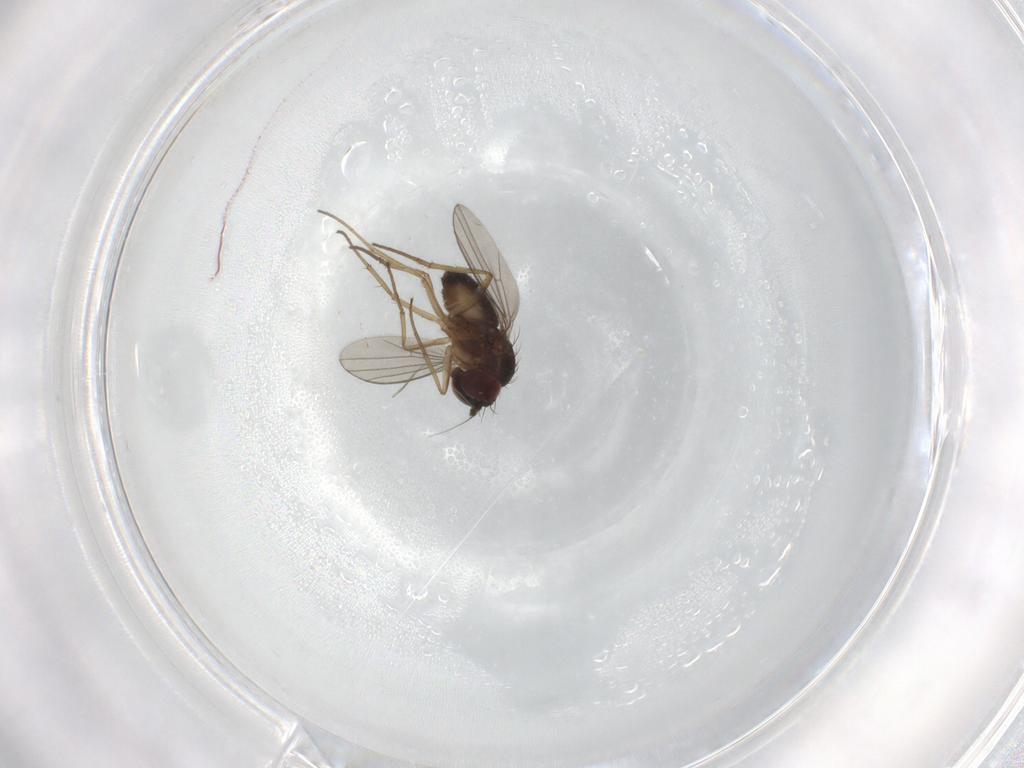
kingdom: Animalia
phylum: Arthropoda
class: Insecta
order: Diptera
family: Dolichopodidae
